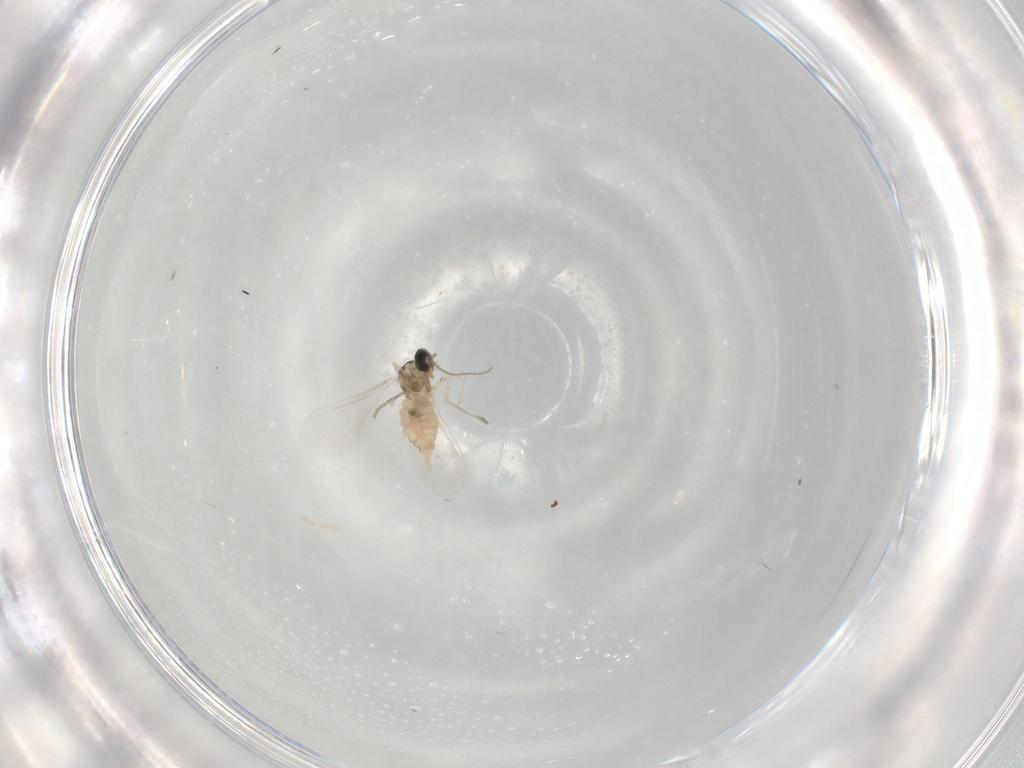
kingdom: Animalia
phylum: Arthropoda
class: Insecta
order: Diptera
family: Cecidomyiidae
